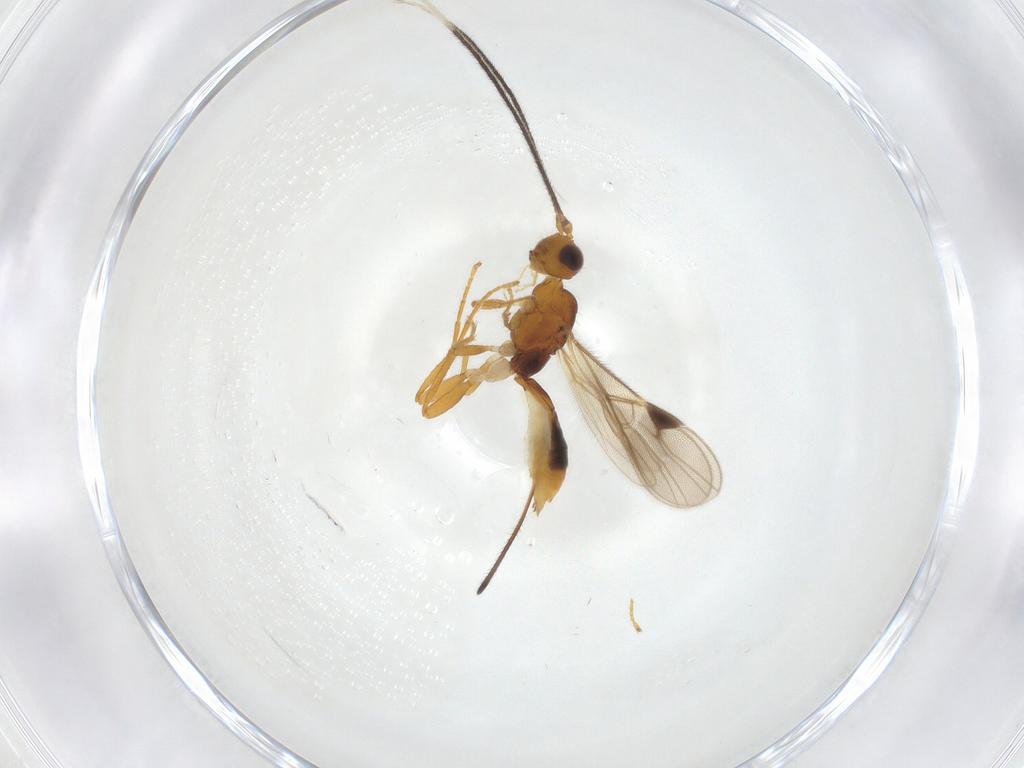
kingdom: Animalia
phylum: Arthropoda
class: Insecta
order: Hymenoptera
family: Braconidae
